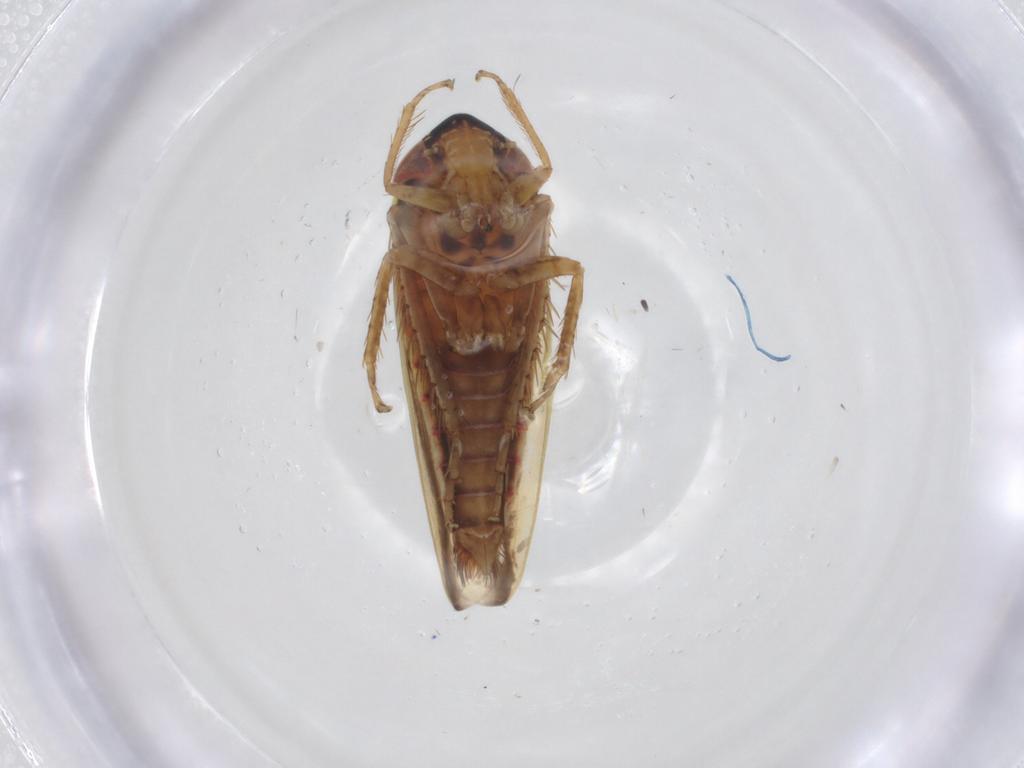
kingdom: Animalia
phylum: Arthropoda
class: Insecta
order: Hemiptera
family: Cicadellidae
